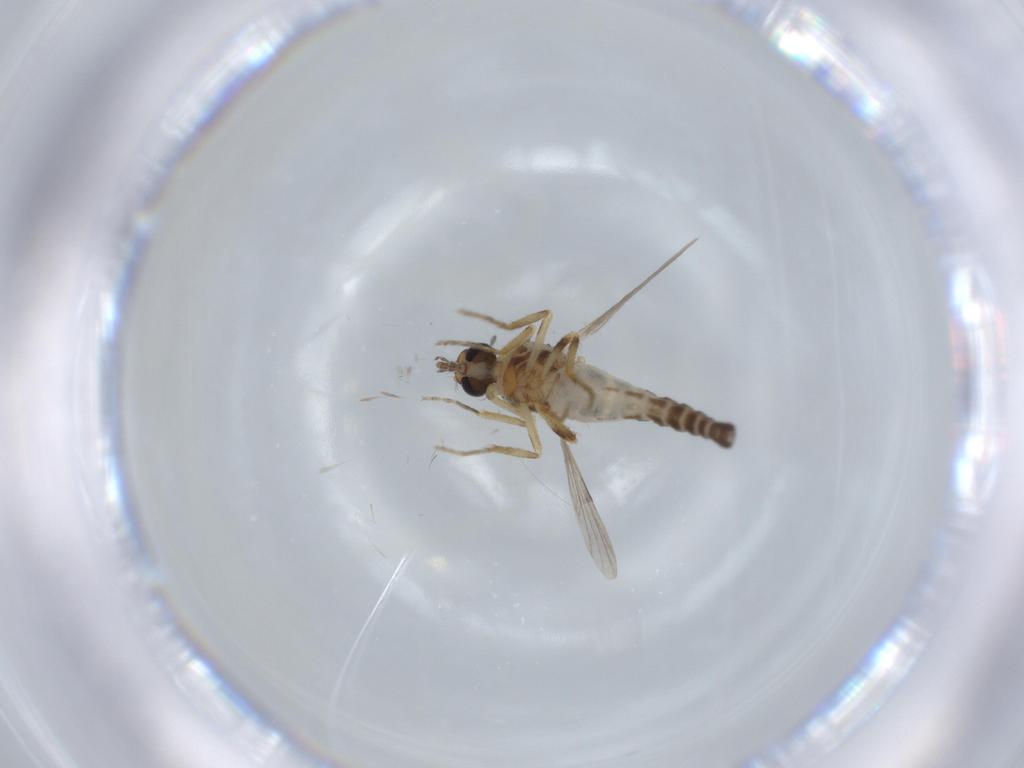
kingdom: Animalia
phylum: Arthropoda
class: Insecta
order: Diptera
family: Ceratopogonidae
